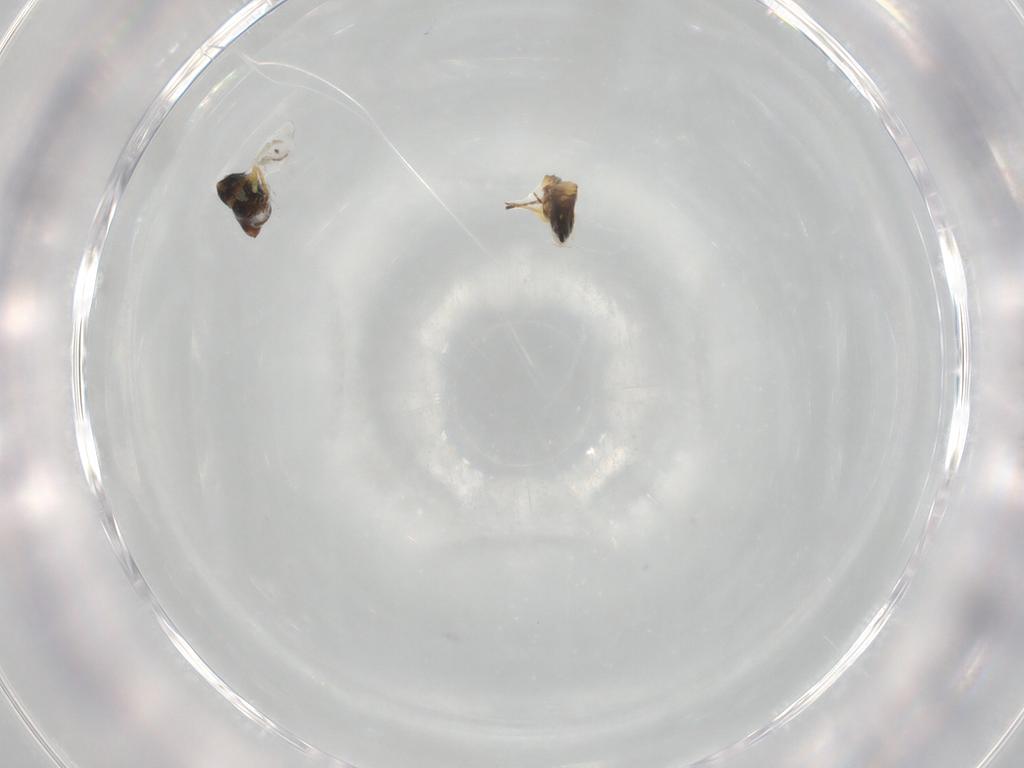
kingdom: Animalia
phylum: Arthropoda
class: Insecta
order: Hymenoptera
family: Eulophidae
